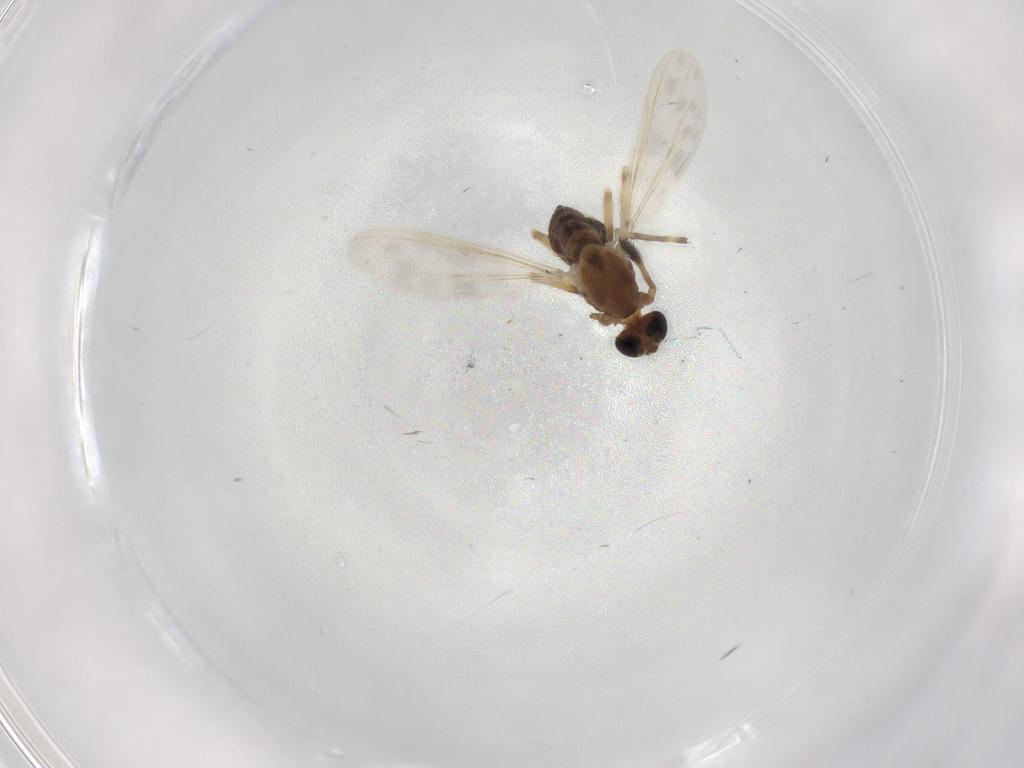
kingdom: Animalia
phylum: Arthropoda
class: Insecta
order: Diptera
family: Chironomidae
